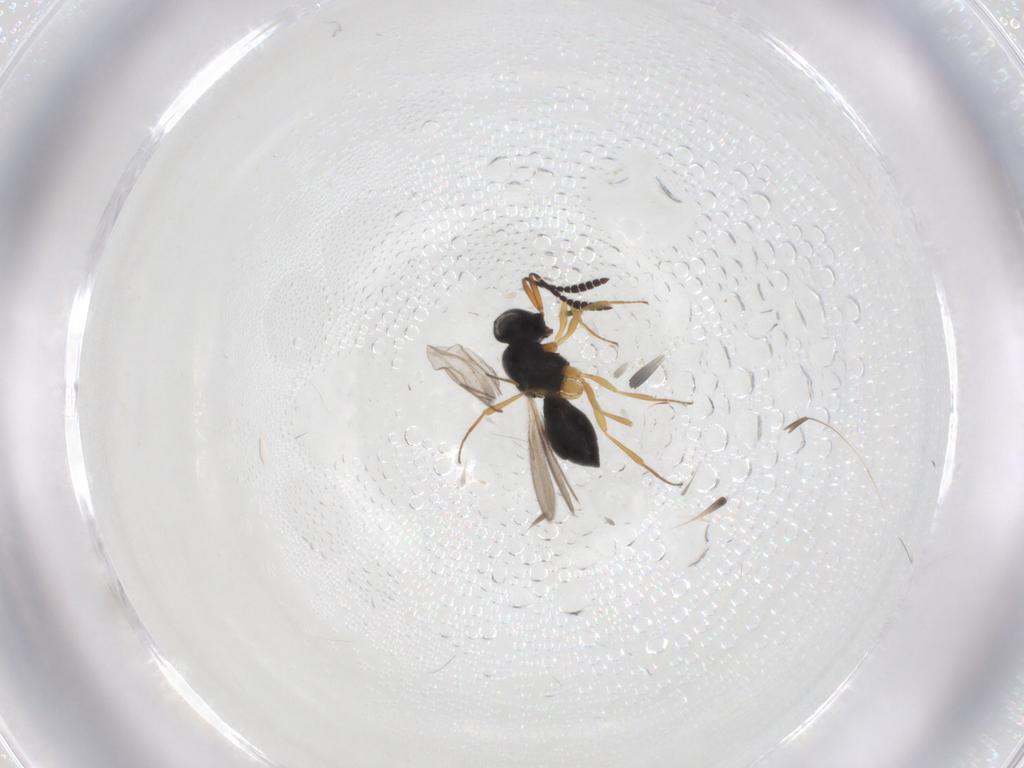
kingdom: Animalia
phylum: Arthropoda
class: Insecta
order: Hymenoptera
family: Scelionidae
